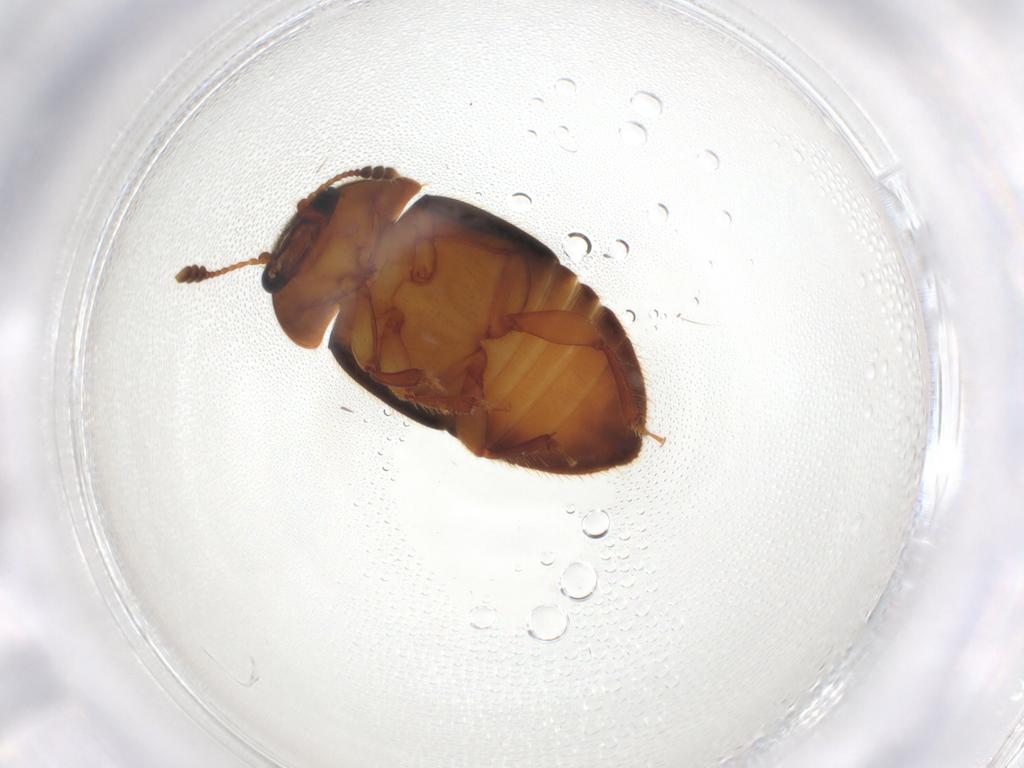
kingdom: Animalia
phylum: Arthropoda
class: Insecta
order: Coleoptera
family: Nitidulidae
